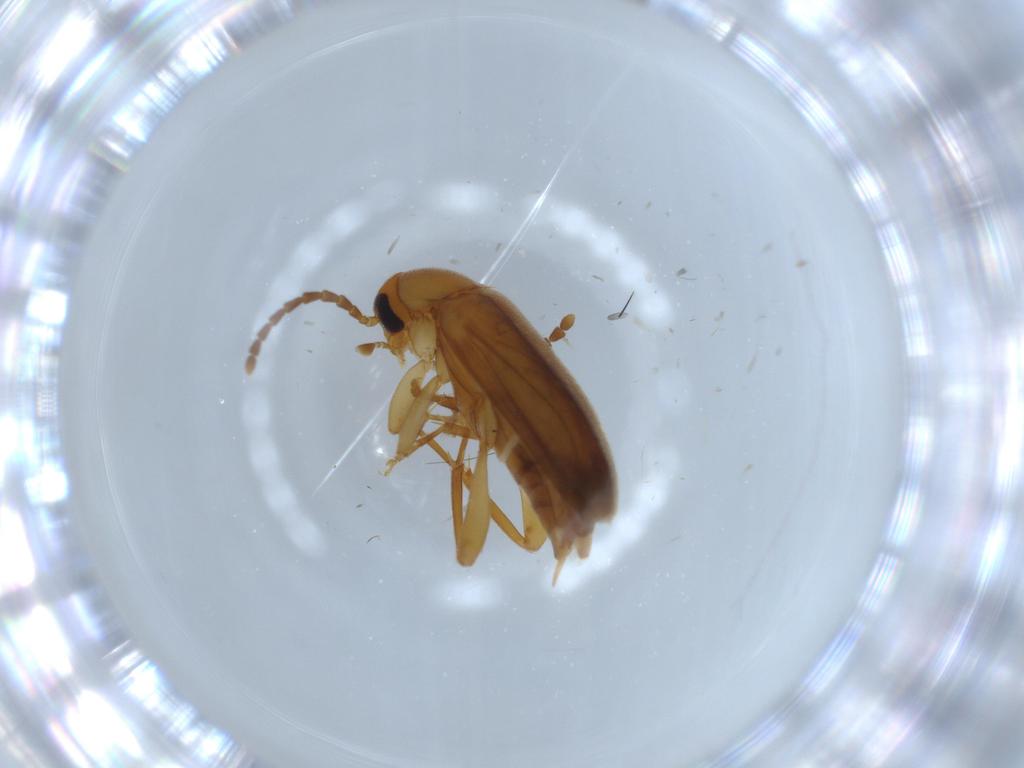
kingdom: Animalia
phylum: Arthropoda
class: Insecta
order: Coleoptera
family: Scraptiidae
